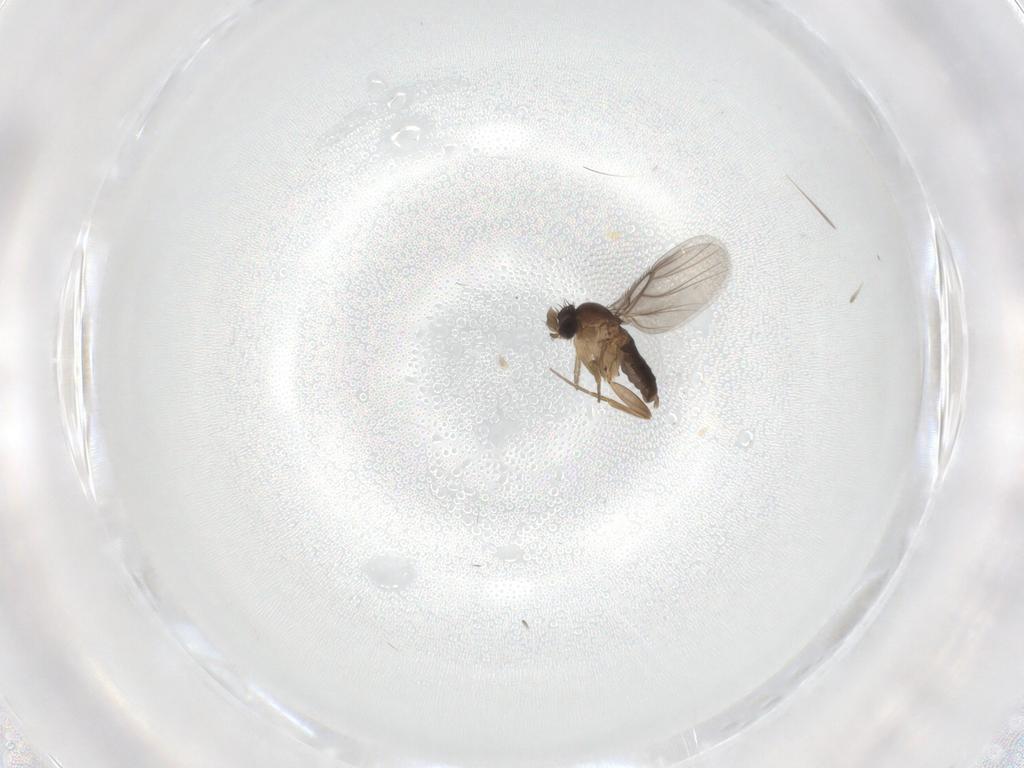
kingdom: Animalia
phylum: Arthropoda
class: Insecta
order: Diptera
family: Phoridae
